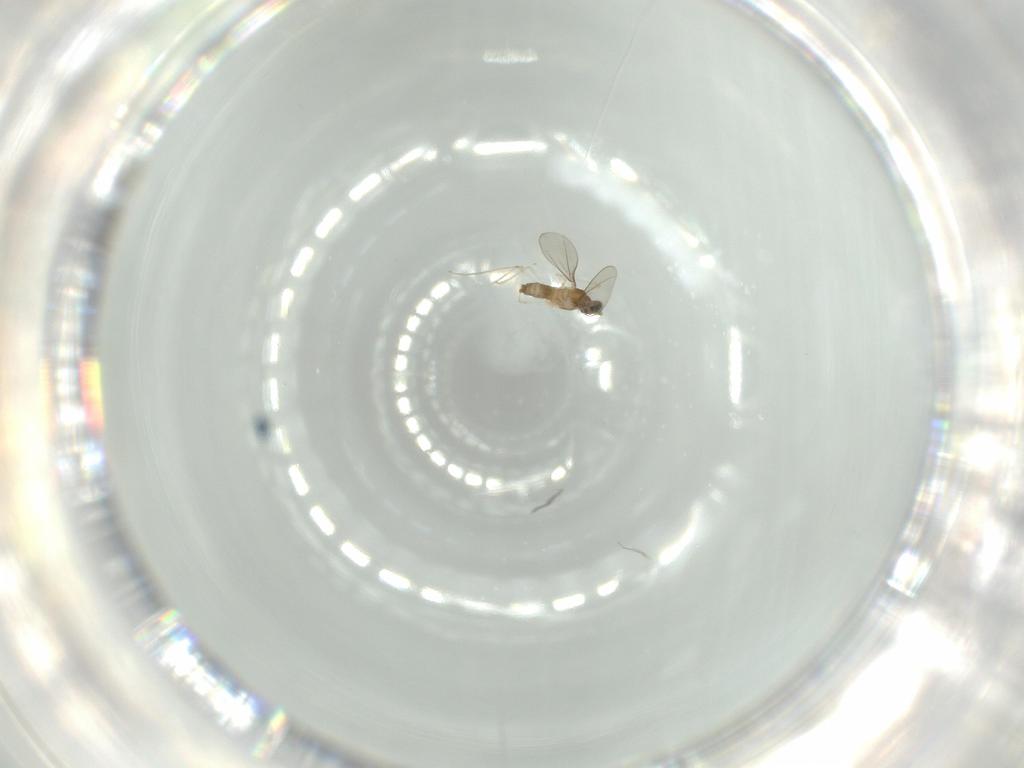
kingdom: Animalia
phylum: Arthropoda
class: Insecta
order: Diptera
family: Cecidomyiidae
